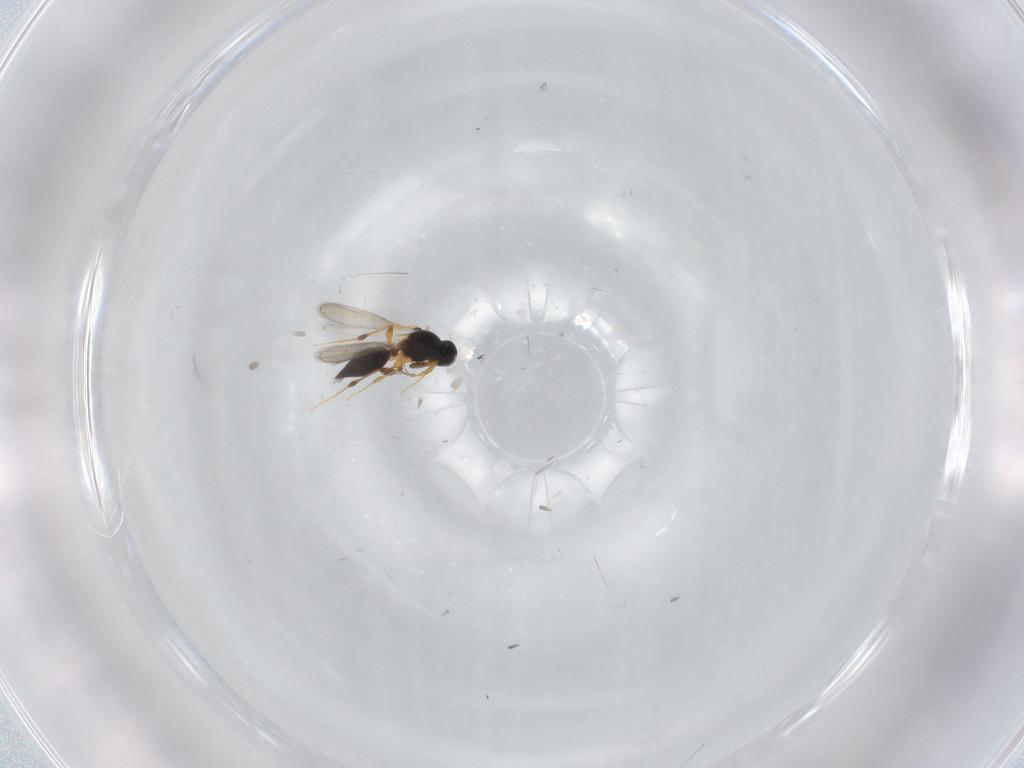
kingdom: Animalia
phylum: Arthropoda
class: Insecta
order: Hymenoptera
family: Platygastridae
